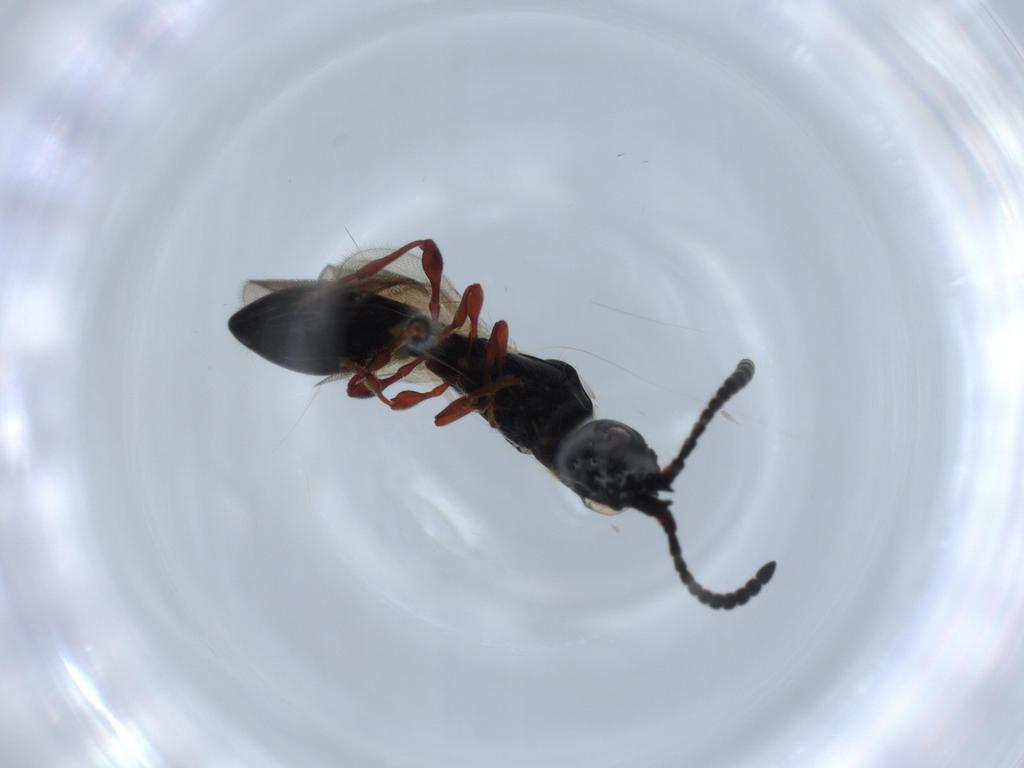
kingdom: Animalia
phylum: Arthropoda
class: Insecta
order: Hymenoptera
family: Diapriidae
